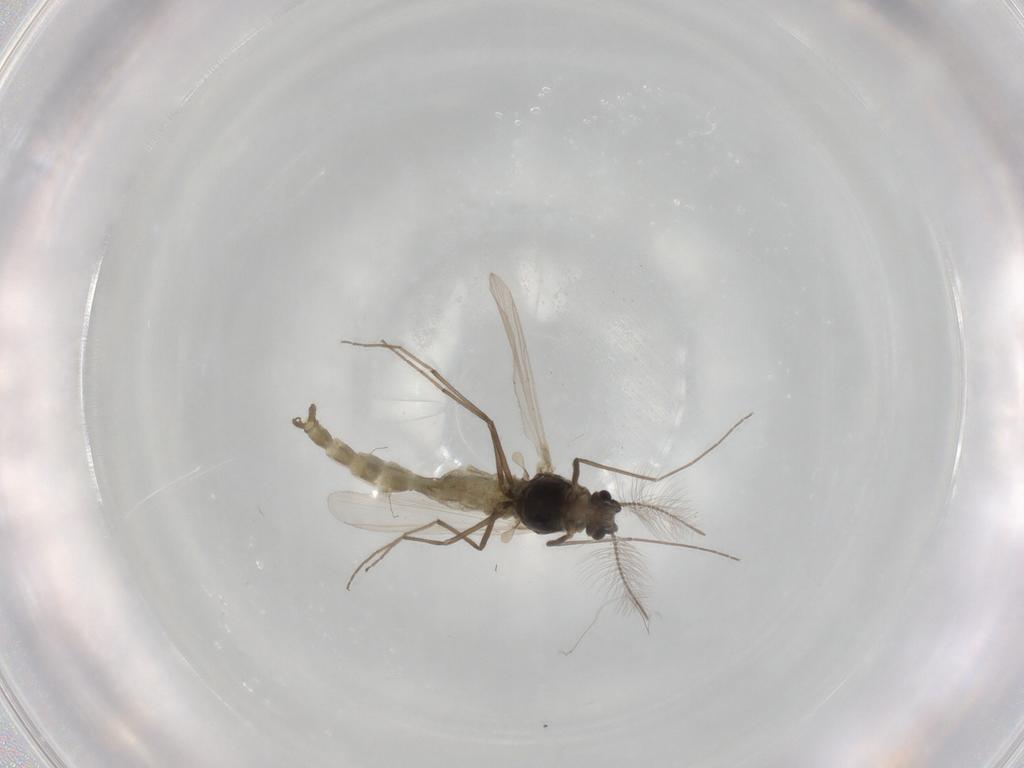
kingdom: Animalia
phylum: Arthropoda
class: Insecta
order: Diptera
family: Chironomidae
